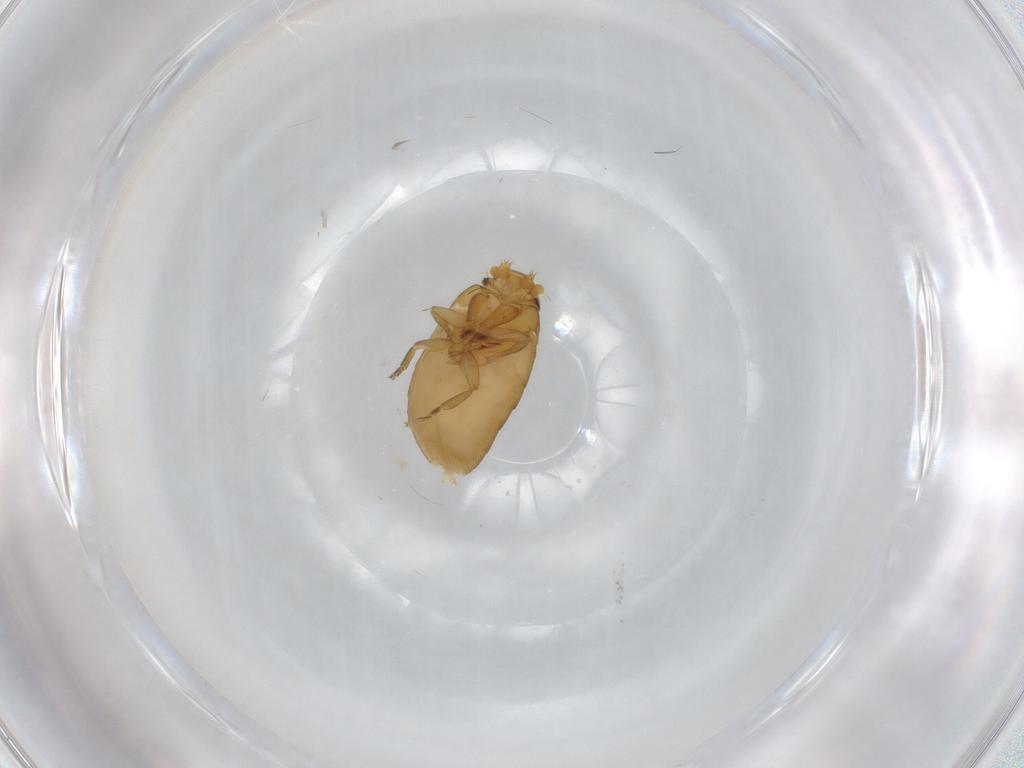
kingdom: Animalia
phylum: Arthropoda
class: Insecta
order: Diptera
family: Phoridae
